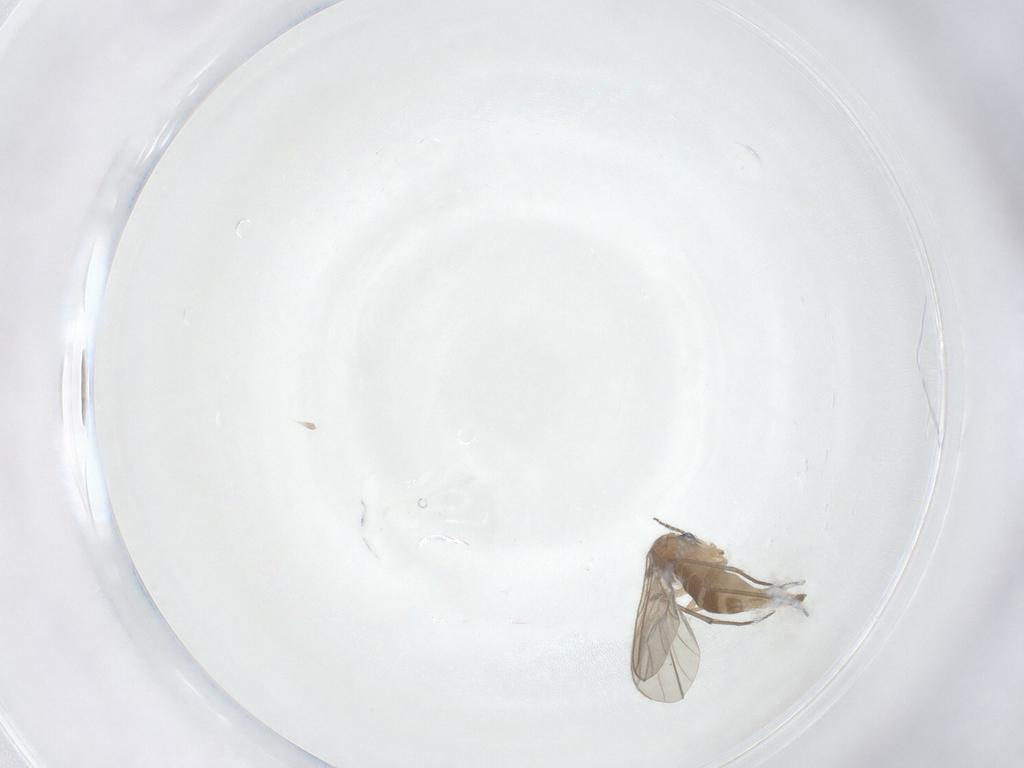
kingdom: Animalia
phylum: Arthropoda
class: Insecta
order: Diptera
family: Sciaridae
